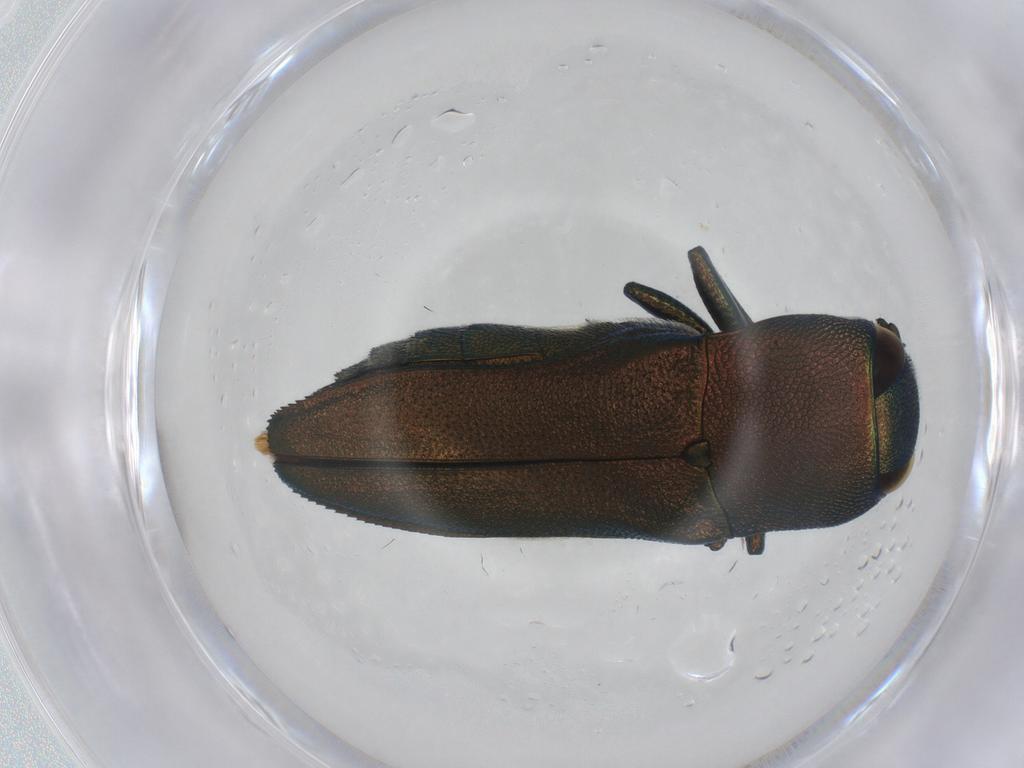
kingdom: Animalia
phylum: Arthropoda
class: Insecta
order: Coleoptera
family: Buprestidae
